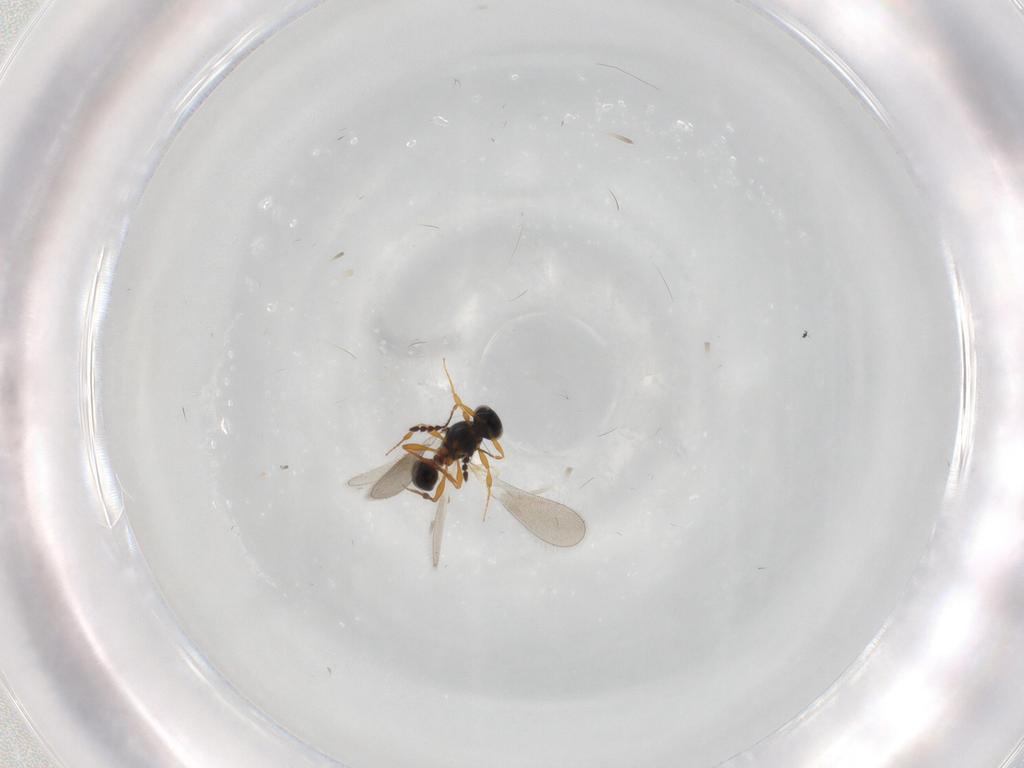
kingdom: Animalia
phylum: Arthropoda
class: Insecta
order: Hymenoptera
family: Platygastridae
